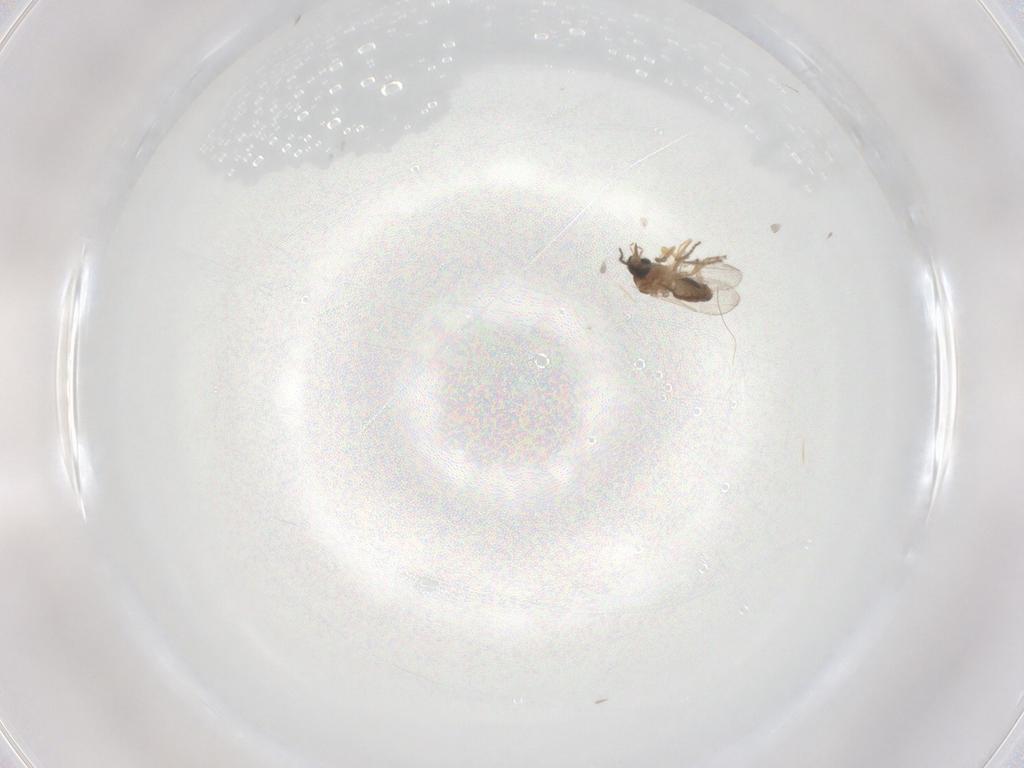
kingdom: Animalia
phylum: Arthropoda
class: Insecta
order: Diptera
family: Ceratopogonidae
